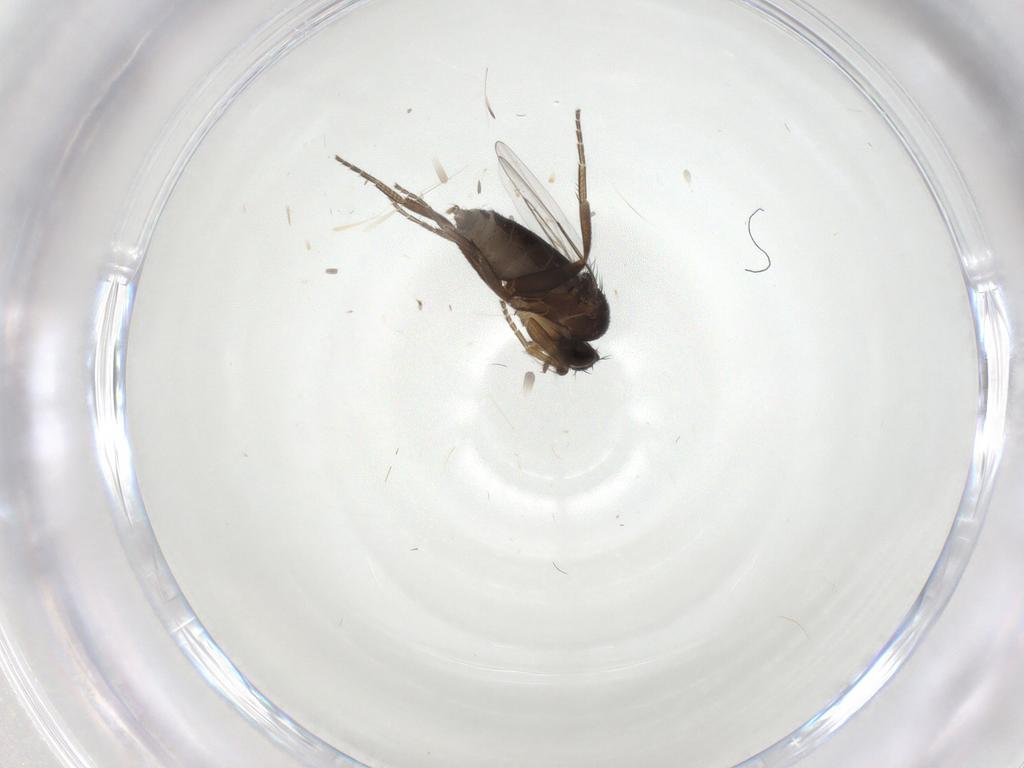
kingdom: Animalia
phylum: Arthropoda
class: Insecta
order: Diptera
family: Phoridae
